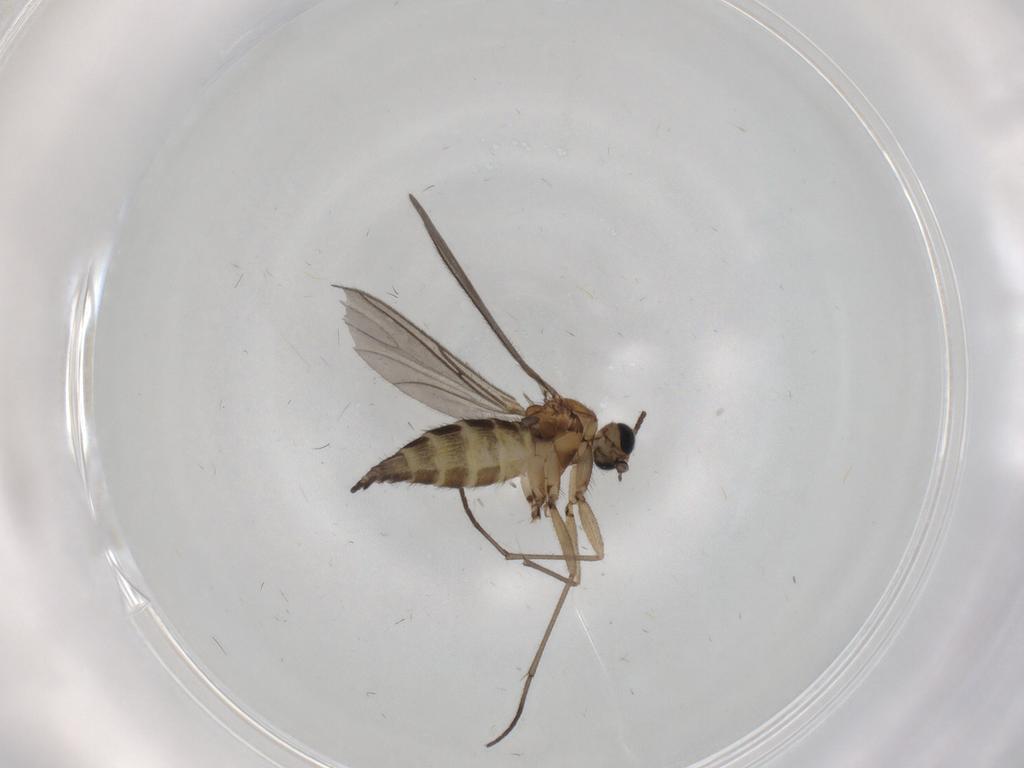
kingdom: Animalia
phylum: Arthropoda
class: Insecta
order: Diptera
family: Sciaridae
